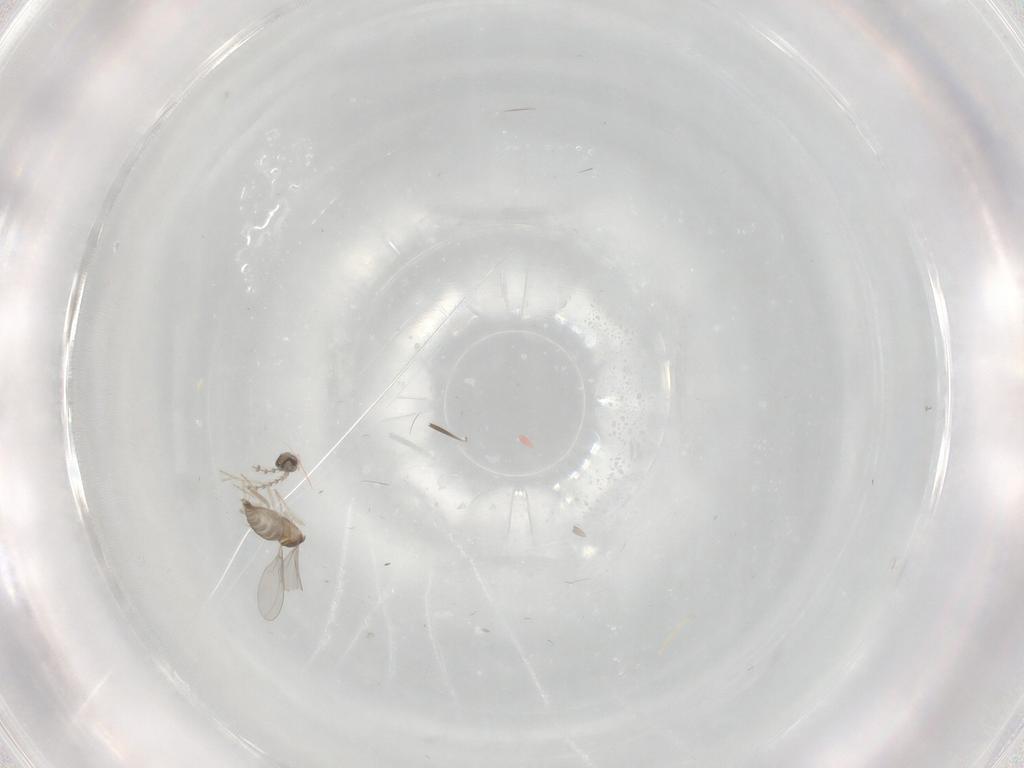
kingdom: Animalia
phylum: Arthropoda
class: Insecta
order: Diptera
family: Cecidomyiidae
